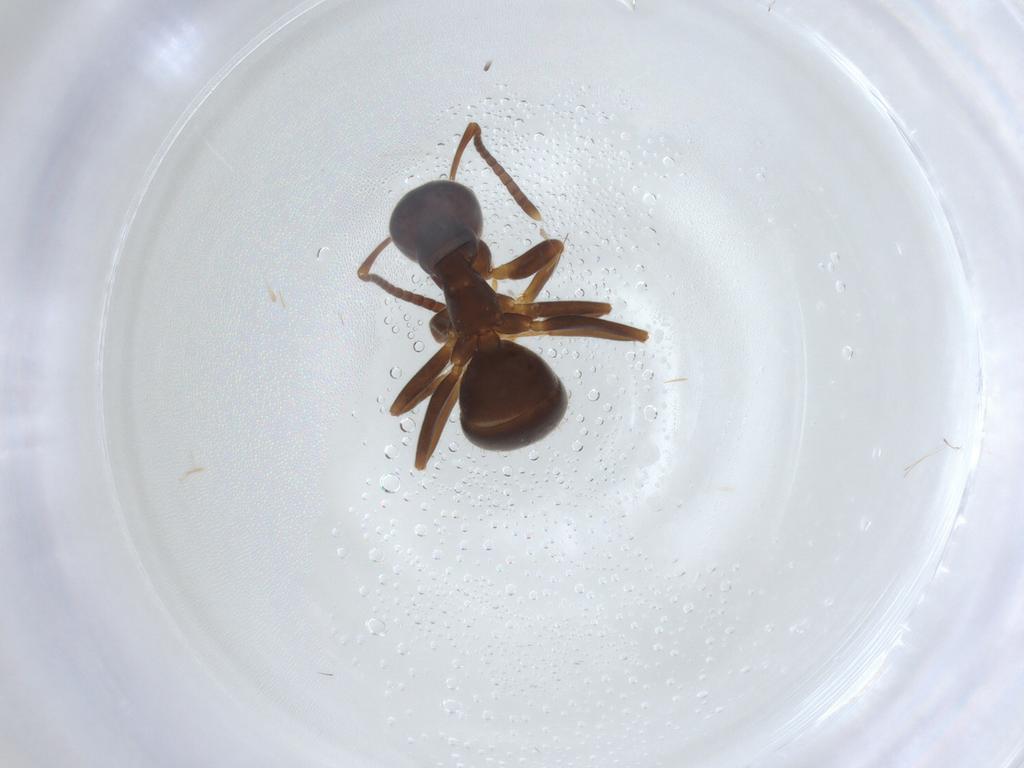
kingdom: Animalia
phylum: Arthropoda
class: Insecta
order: Hymenoptera
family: Formicidae
